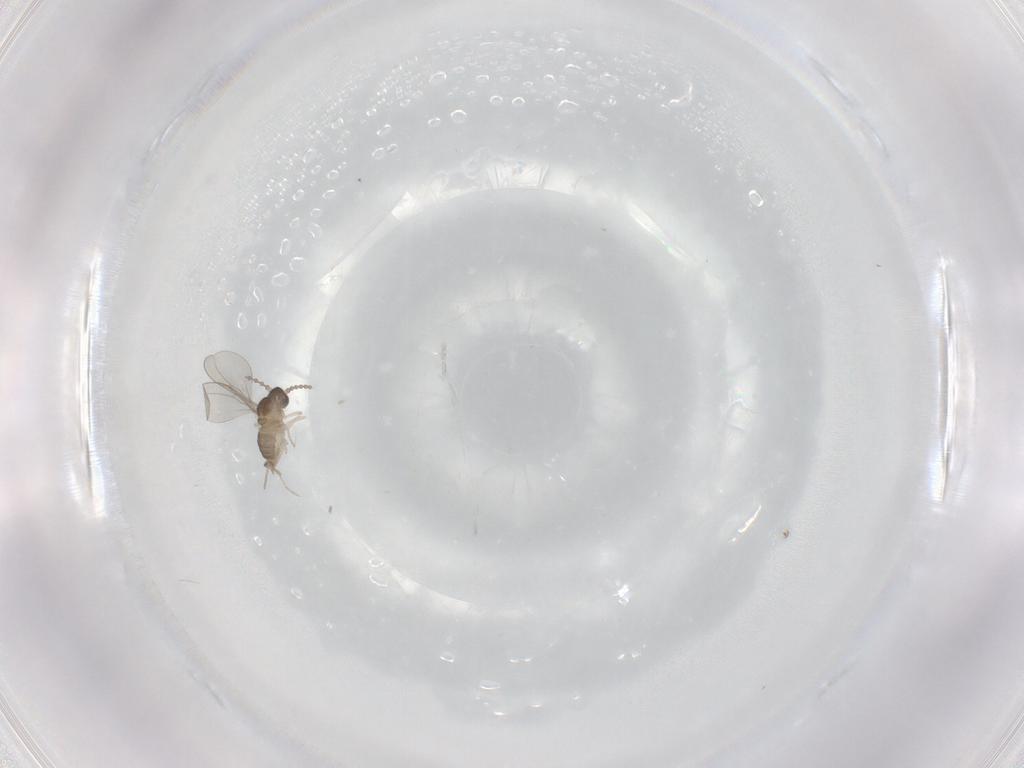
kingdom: Animalia
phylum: Arthropoda
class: Insecta
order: Diptera
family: Cecidomyiidae
